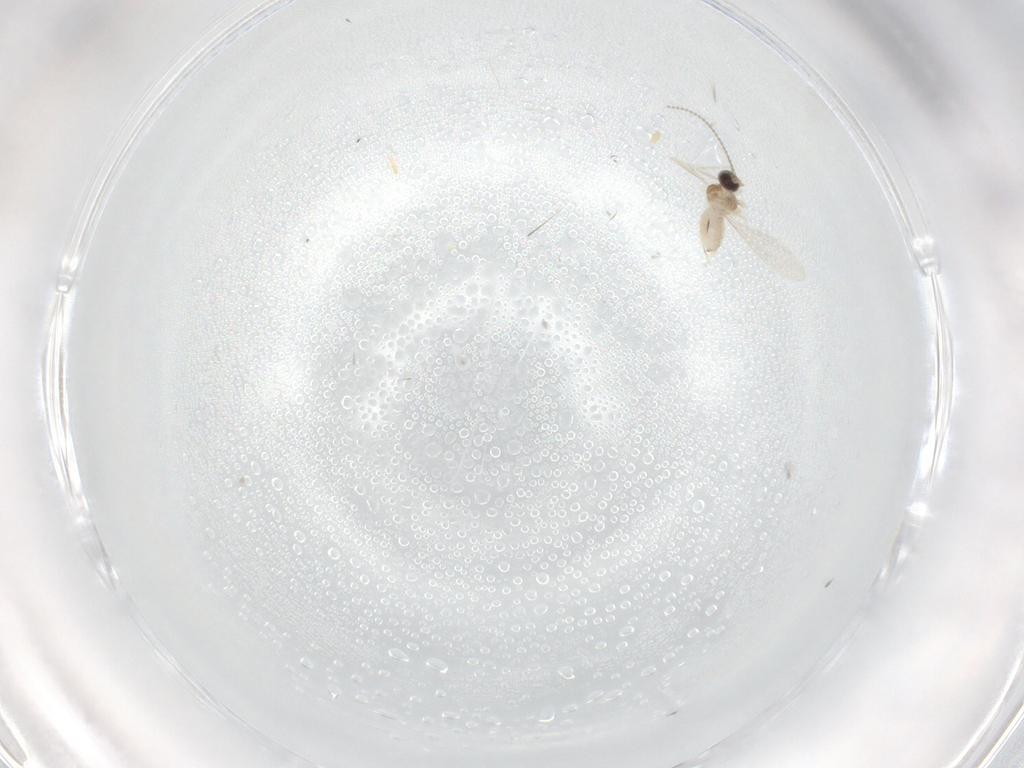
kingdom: Animalia
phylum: Arthropoda
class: Insecta
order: Diptera
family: Cecidomyiidae
